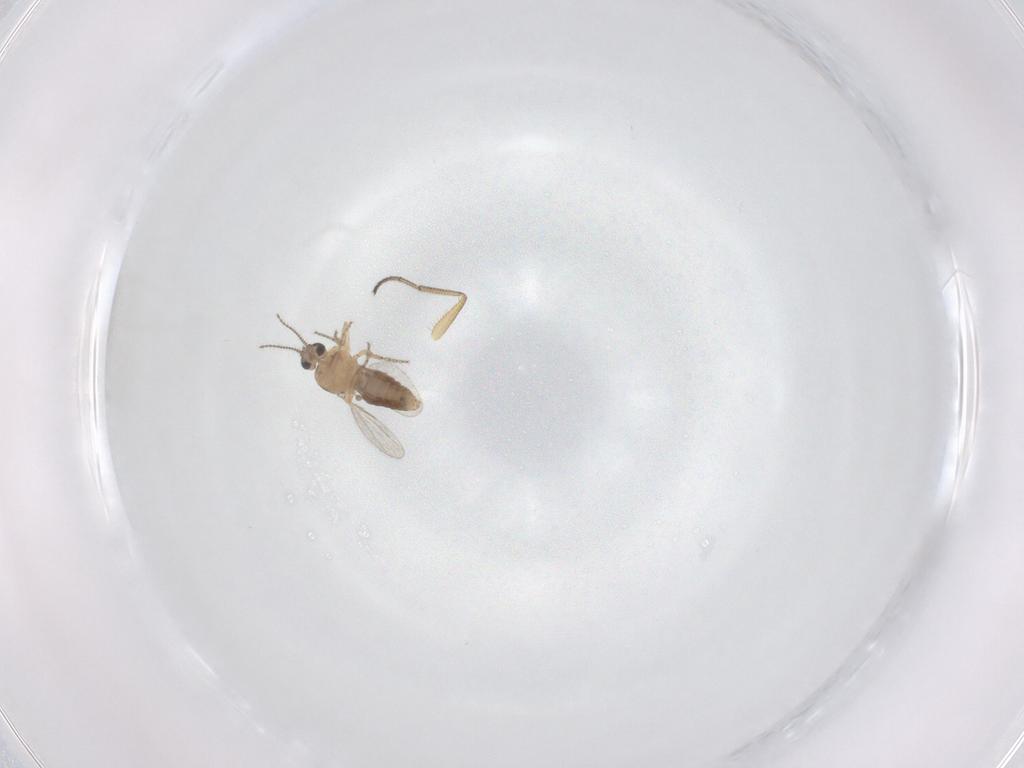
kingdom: Animalia
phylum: Arthropoda
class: Insecta
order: Diptera
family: Ceratopogonidae
